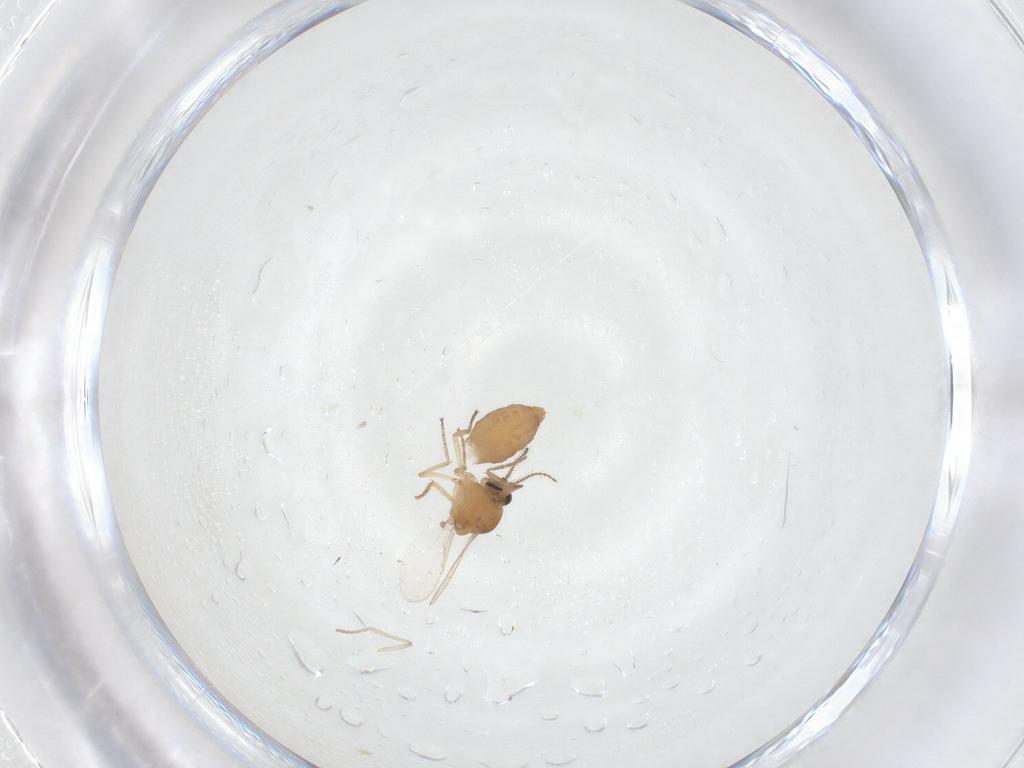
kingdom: Animalia
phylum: Arthropoda
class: Insecta
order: Diptera
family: Ceratopogonidae
